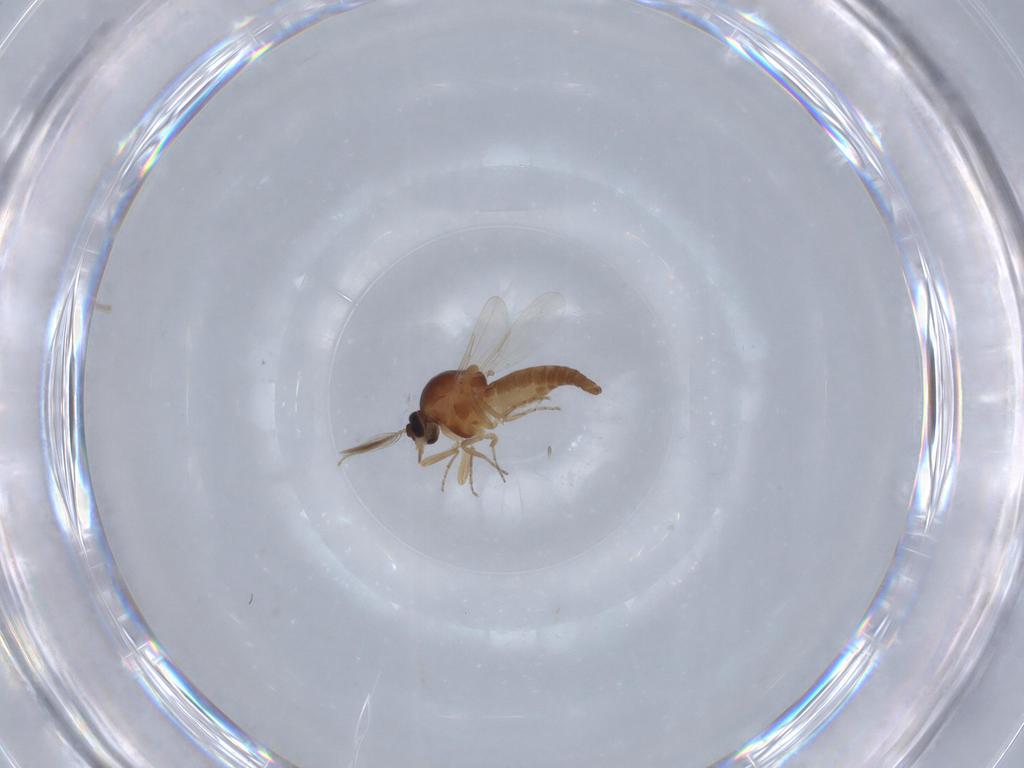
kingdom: Animalia
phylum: Arthropoda
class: Insecta
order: Diptera
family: Ceratopogonidae
